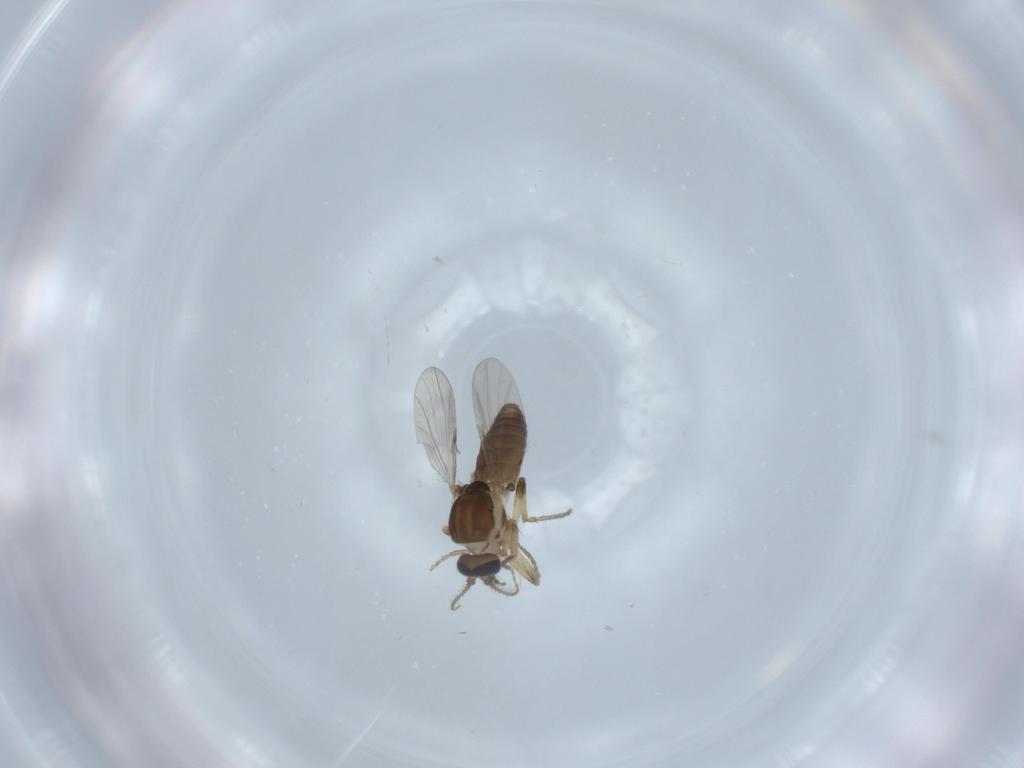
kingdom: Animalia
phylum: Arthropoda
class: Insecta
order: Diptera
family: Ceratopogonidae
